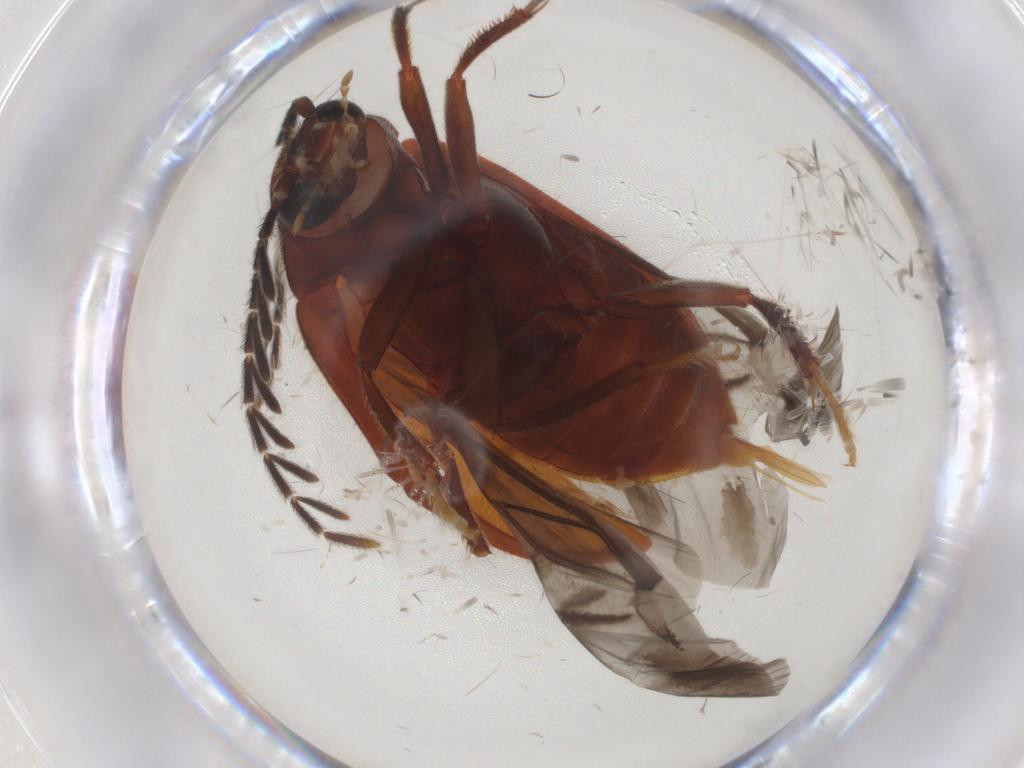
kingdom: Animalia
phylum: Arthropoda
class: Insecta
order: Coleoptera
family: Ptilodactylidae
